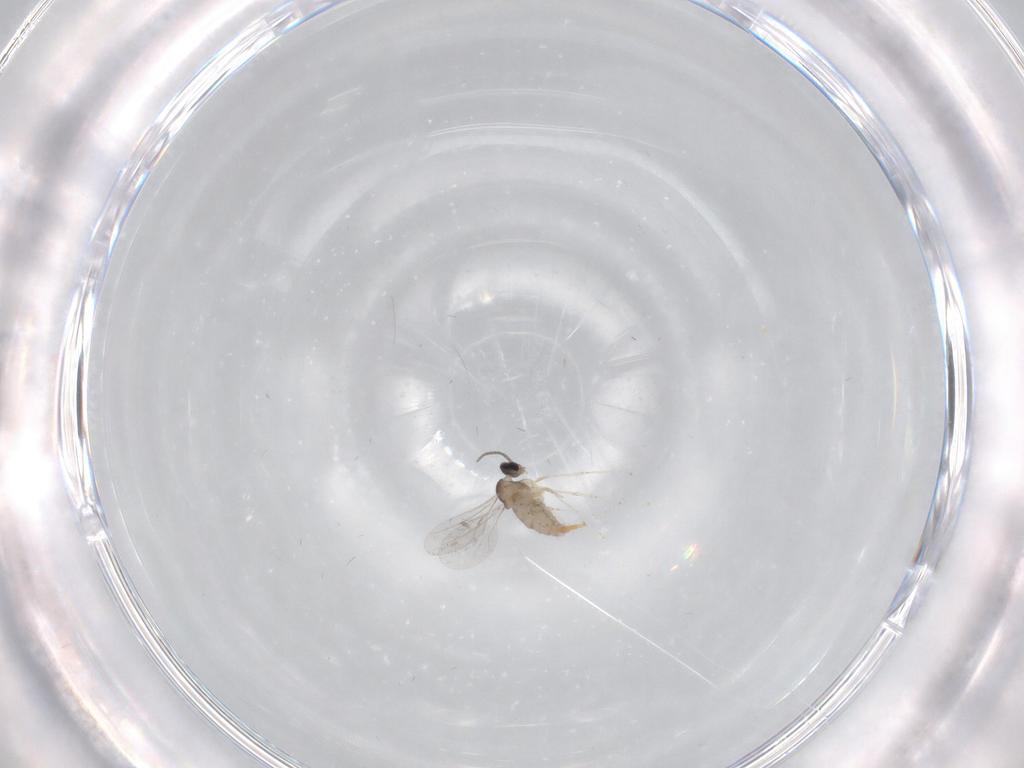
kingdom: Animalia
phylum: Arthropoda
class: Insecta
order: Diptera
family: Cecidomyiidae
